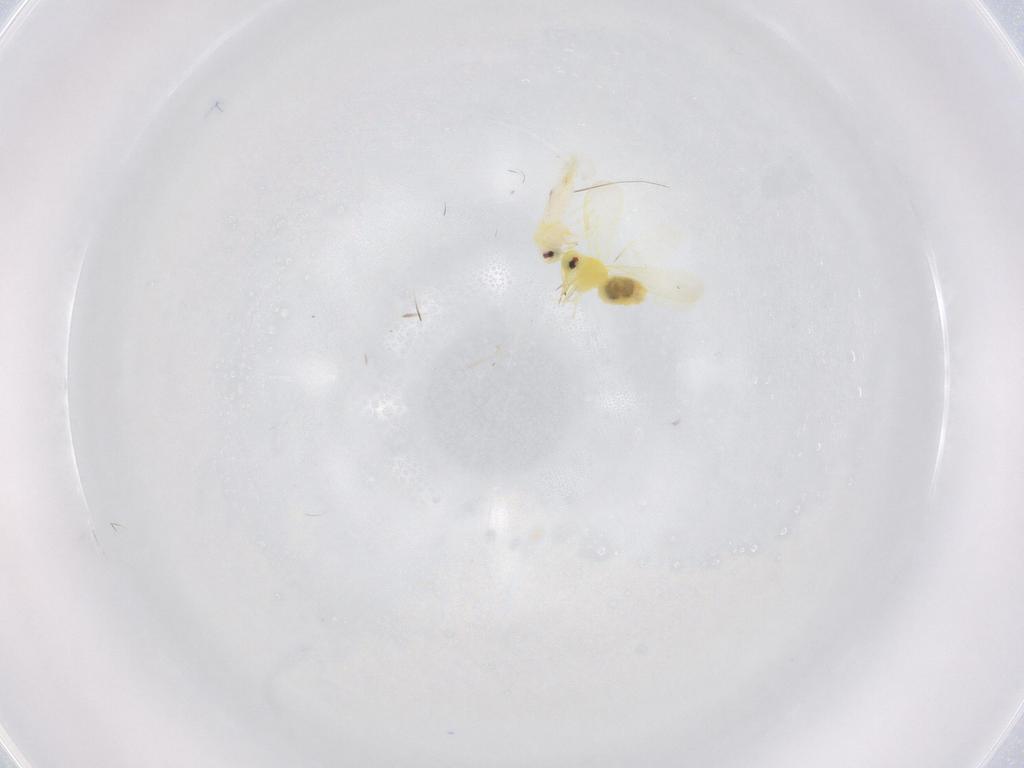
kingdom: Animalia
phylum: Arthropoda
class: Insecta
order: Hemiptera
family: Aleyrodidae
